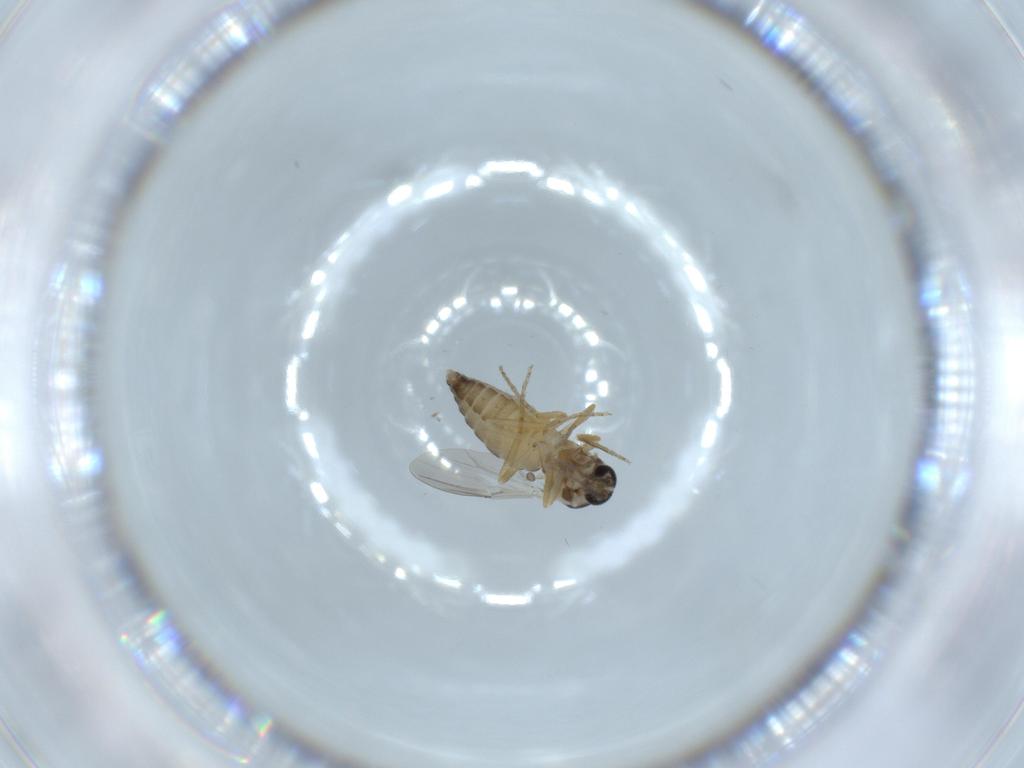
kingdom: Animalia
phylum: Arthropoda
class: Insecta
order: Diptera
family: Ceratopogonidae
